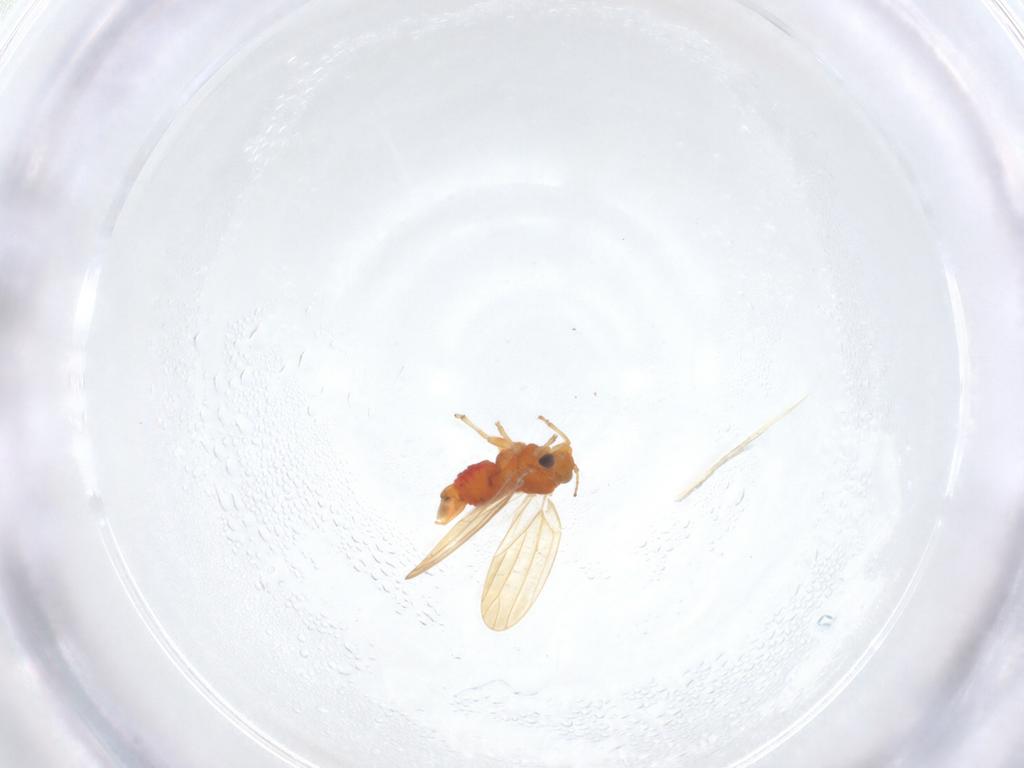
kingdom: Animalia
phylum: Arthropoda
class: Insecta
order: Hemiptera
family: Aphalaridae
